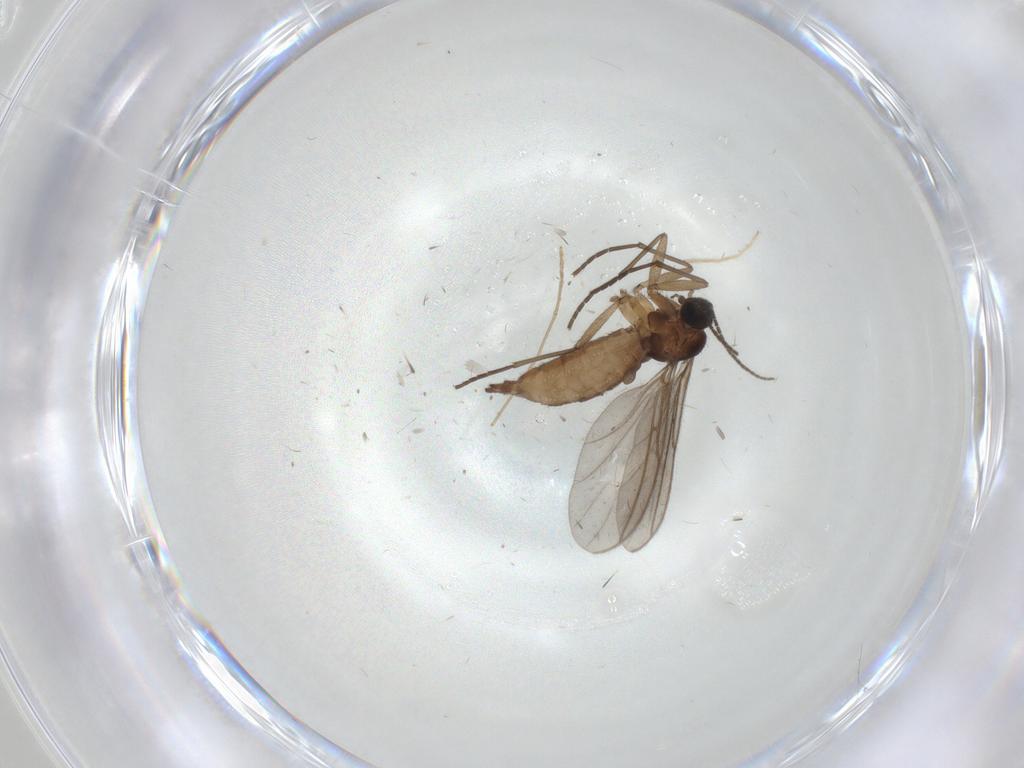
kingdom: Animalia
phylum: Arthropoda
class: Insecta
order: Diptera
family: Sciaridae
